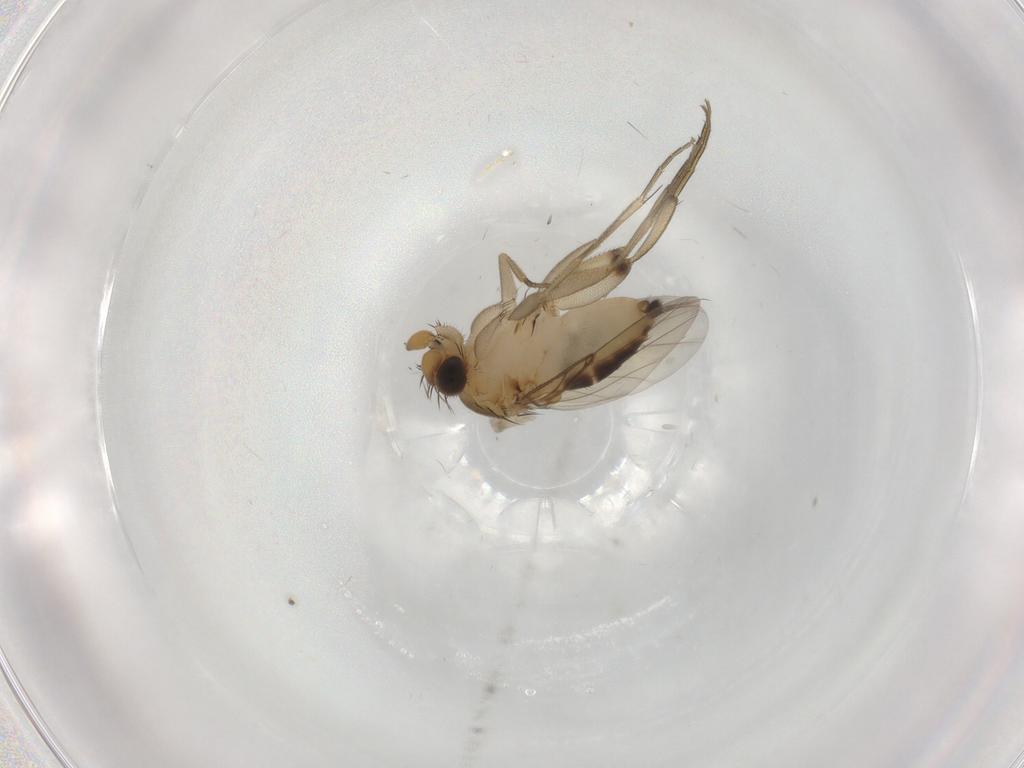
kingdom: Animalia
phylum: Arthropoda
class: Insecta
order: Diptera
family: Phoridae
